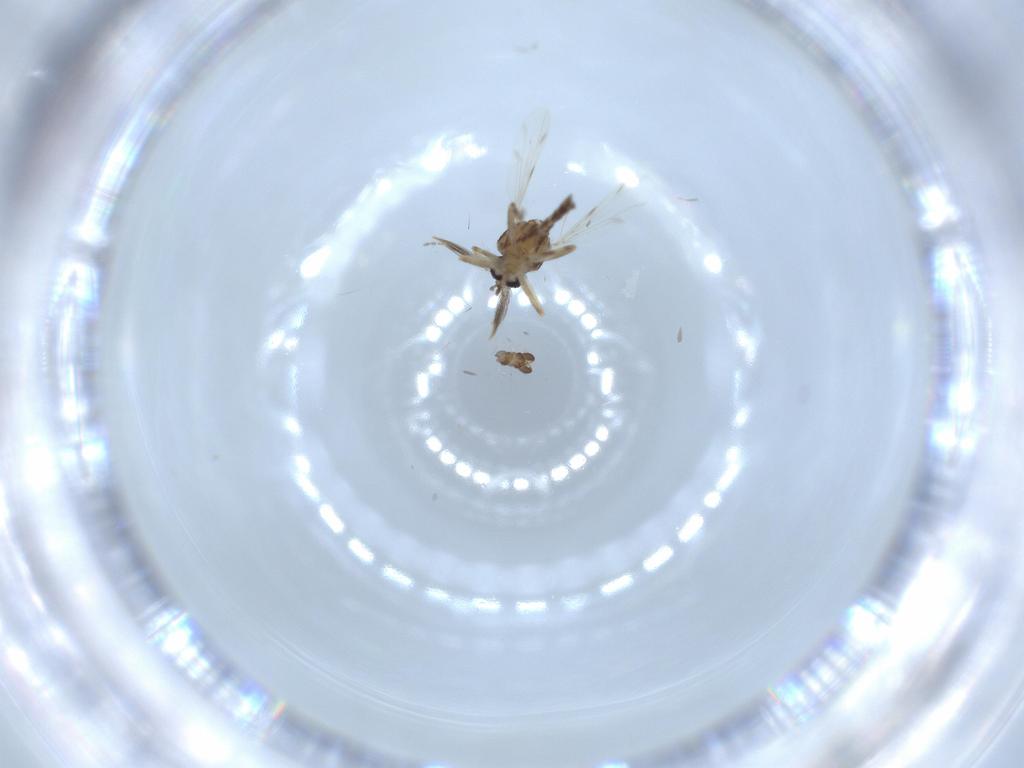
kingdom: Animalia
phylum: Arthropoda
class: Insecta
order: Diptera
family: Ceratopogonidae
